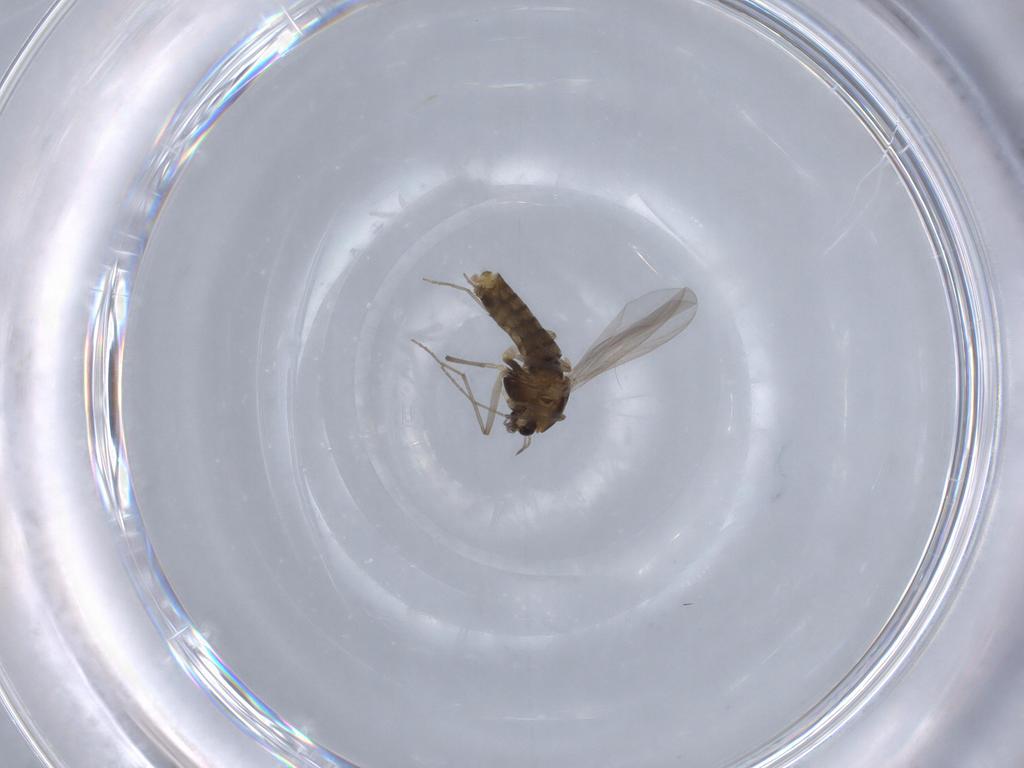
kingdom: Animalia
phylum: Arthropoda
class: Insecta
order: Diptera
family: Chironomidae
